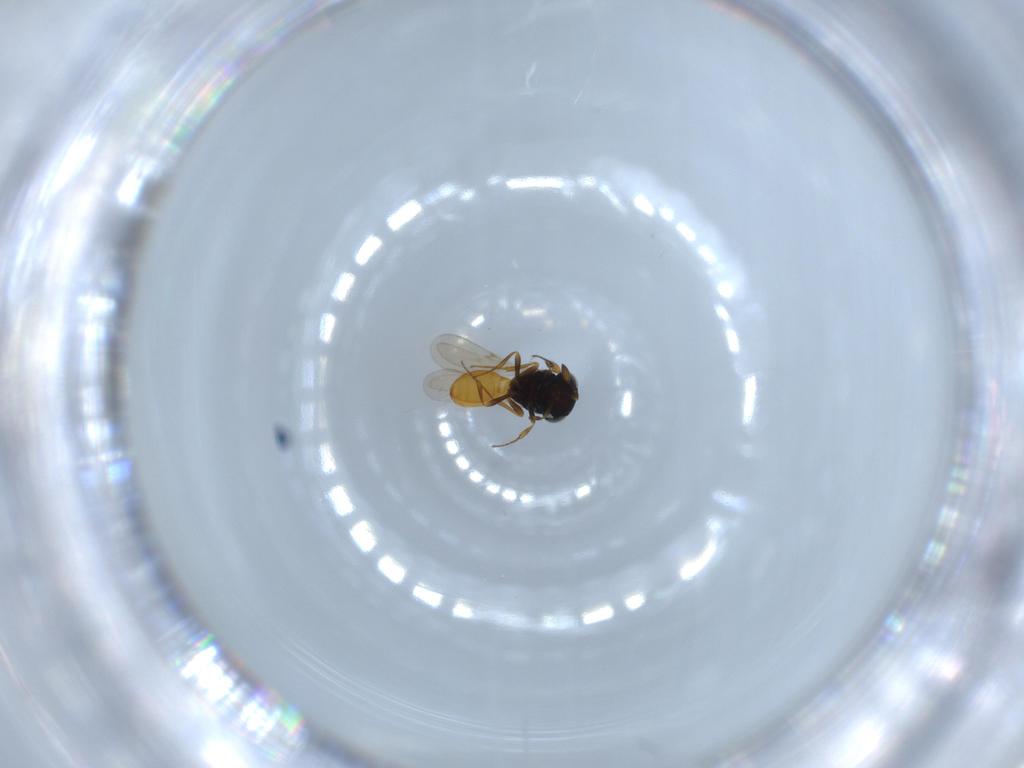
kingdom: Animalia
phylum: Arthropoda
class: Insecta
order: Hymenoptera
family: Scelionidae
